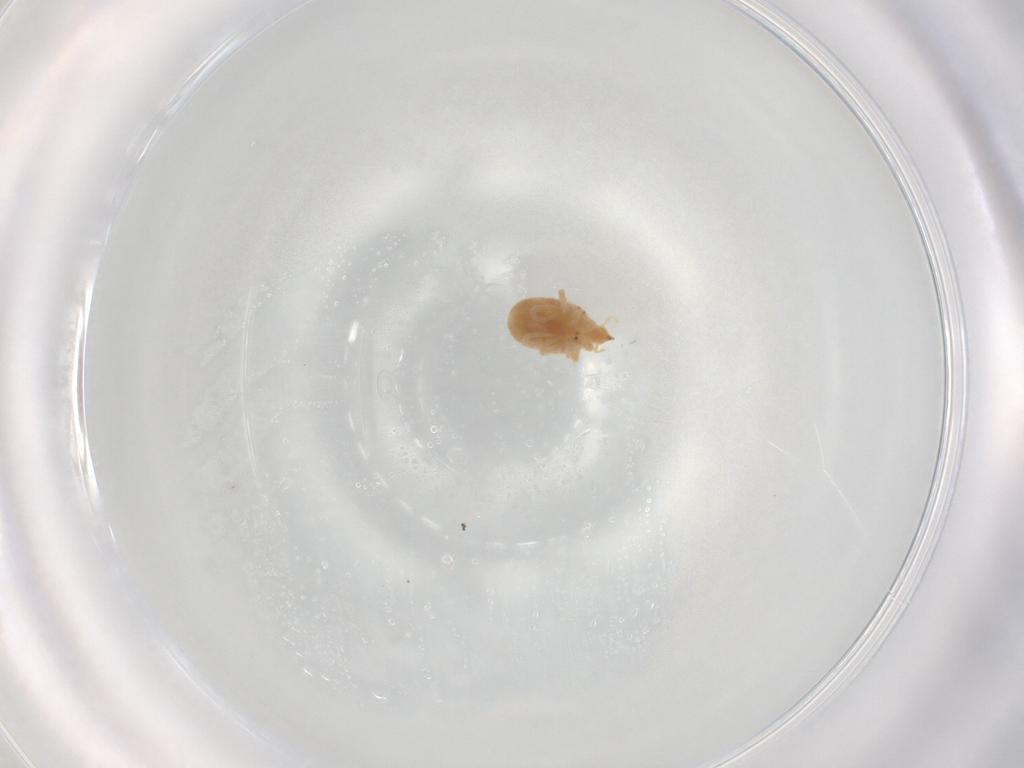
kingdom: Animalia
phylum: Arthropoda
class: Arachnida
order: Trombidiformes
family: Bdellidae
